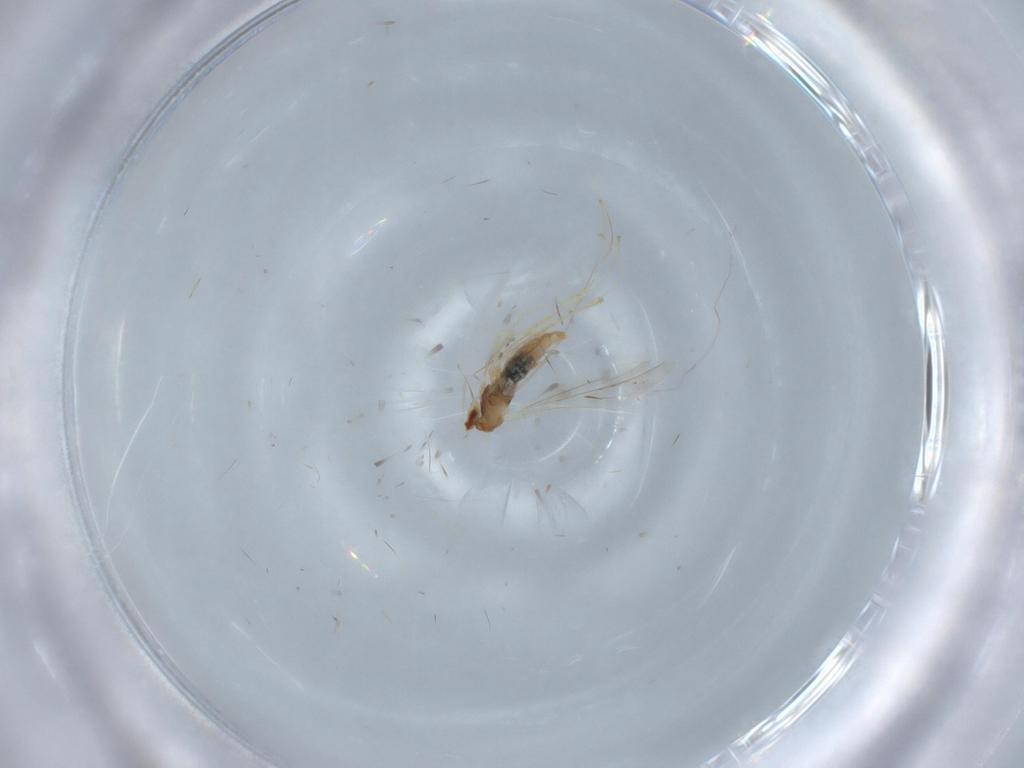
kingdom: Animalia
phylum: Arthropoda
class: Insecta
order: Diptera
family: Cecidomyiidae
